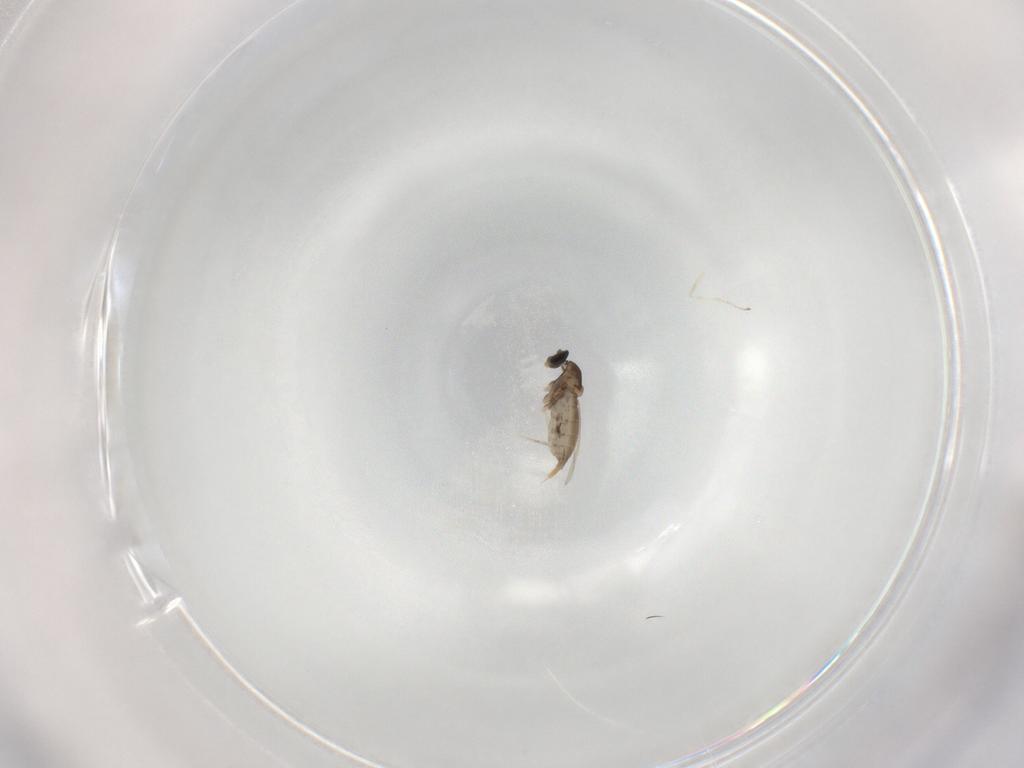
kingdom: Animalia
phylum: Arthropoda
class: Insecta
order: Diptera
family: Cecidomyiidae
